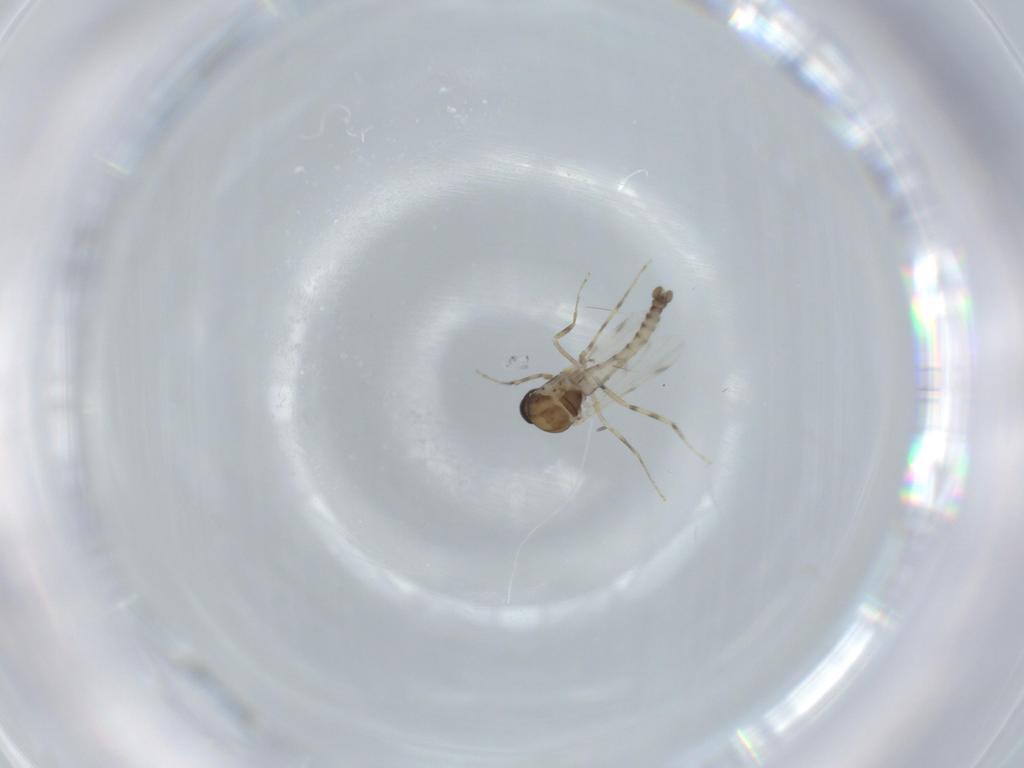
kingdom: Animalia
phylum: Arthropoda
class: Insecta
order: Diptera
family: Ceratopogonidae
